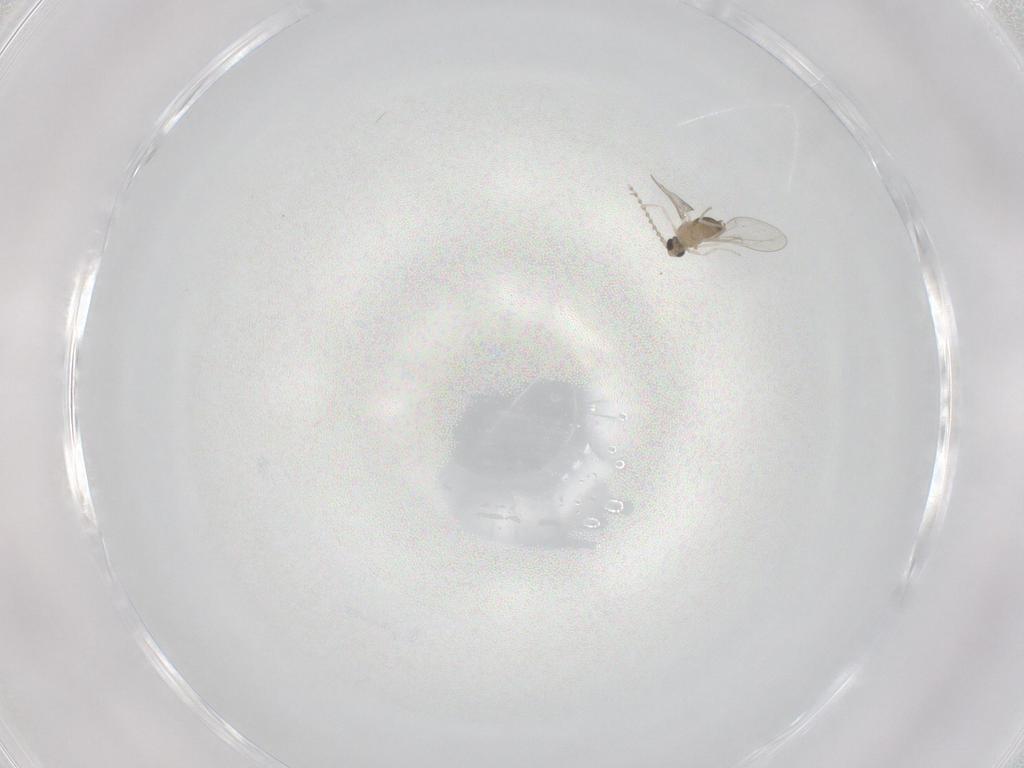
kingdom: Animalia
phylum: Arthropoda
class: Insecta
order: Diptera
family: Cecidomyiidae
